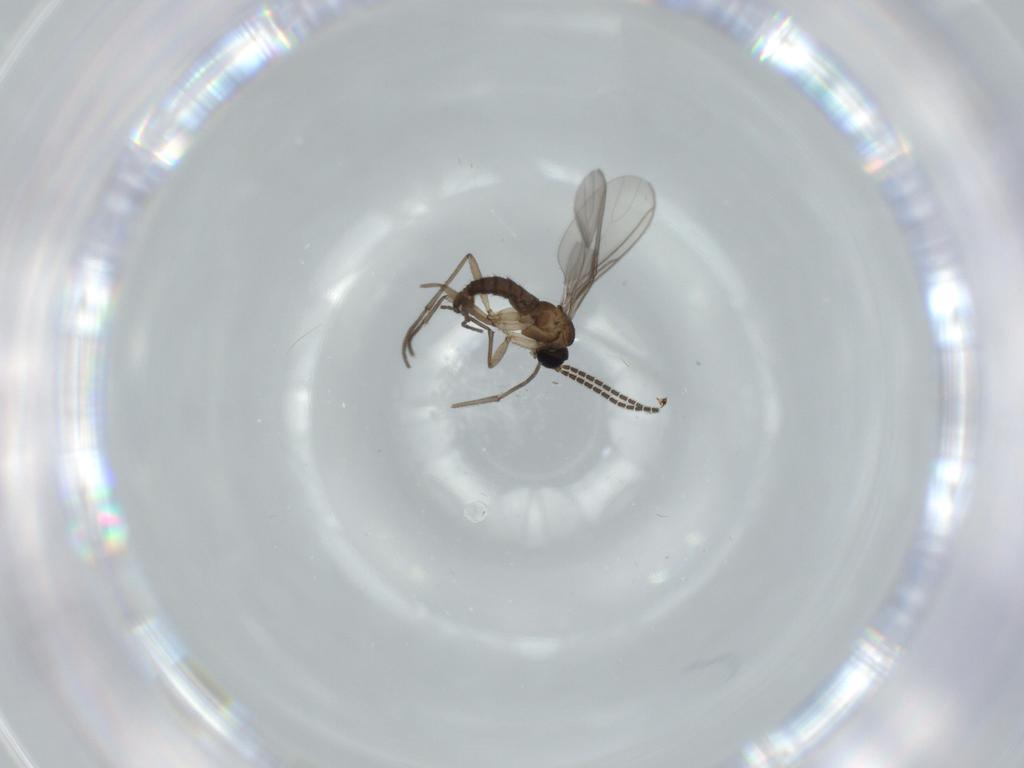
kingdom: Animalia
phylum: Arthropoda
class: Insecta
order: Diptera
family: Sciaridae
